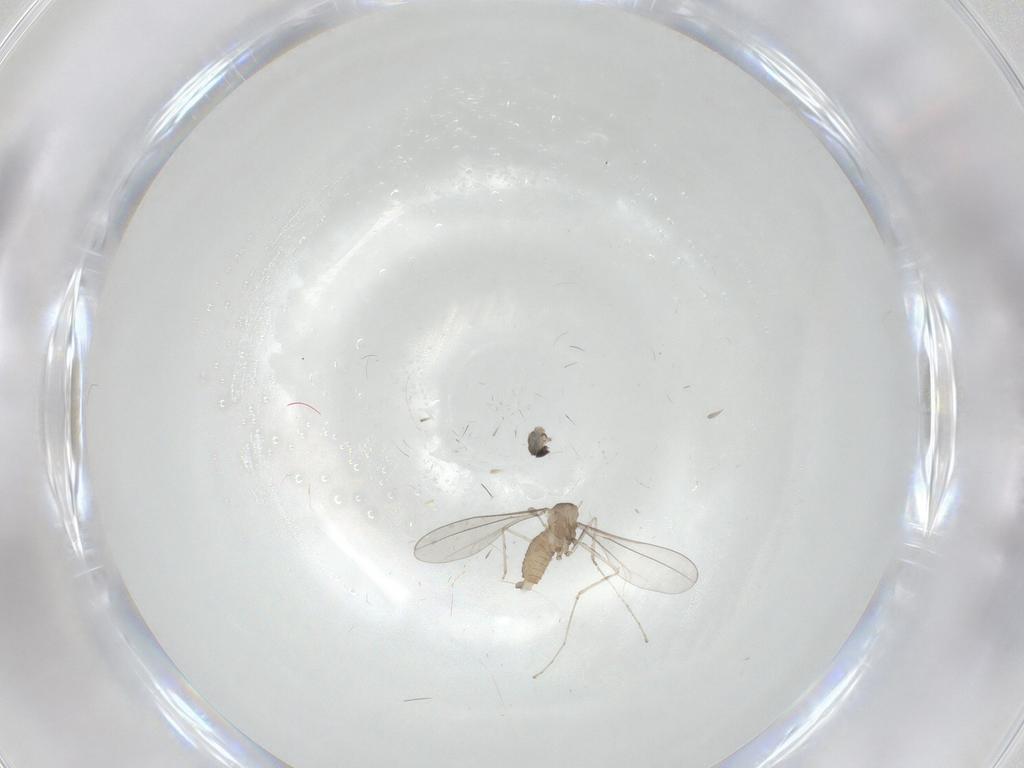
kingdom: Animalia
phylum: Arthropoda
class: Insecta
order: Diptera
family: Cecidomyiidae
